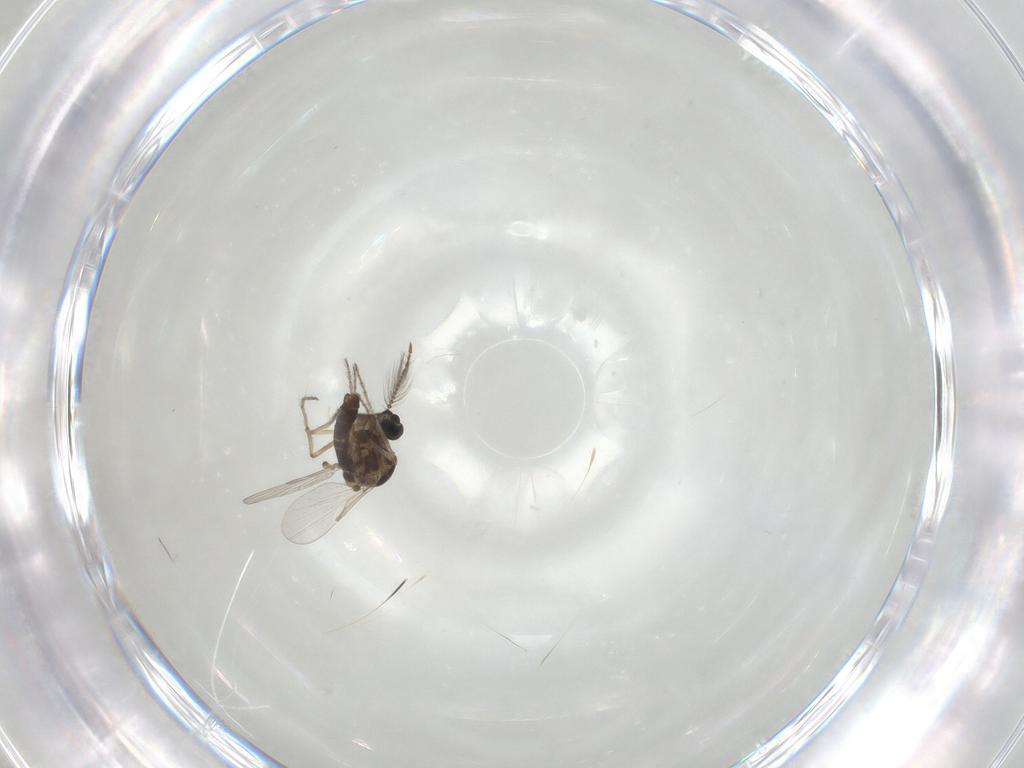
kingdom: Animalia
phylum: Arthropoda
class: Insecta
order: Diptera
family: Ceratopogonidae
